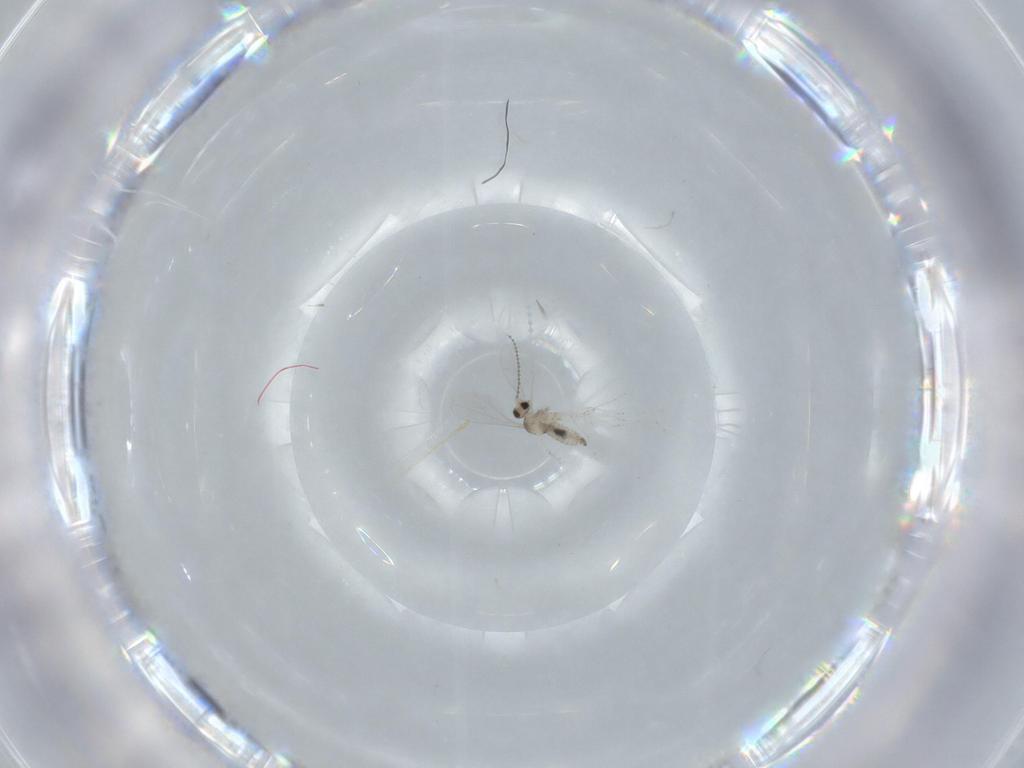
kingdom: Animalia
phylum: Arthropoda
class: Insecta
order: Diptera
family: Cecidomyiidae
